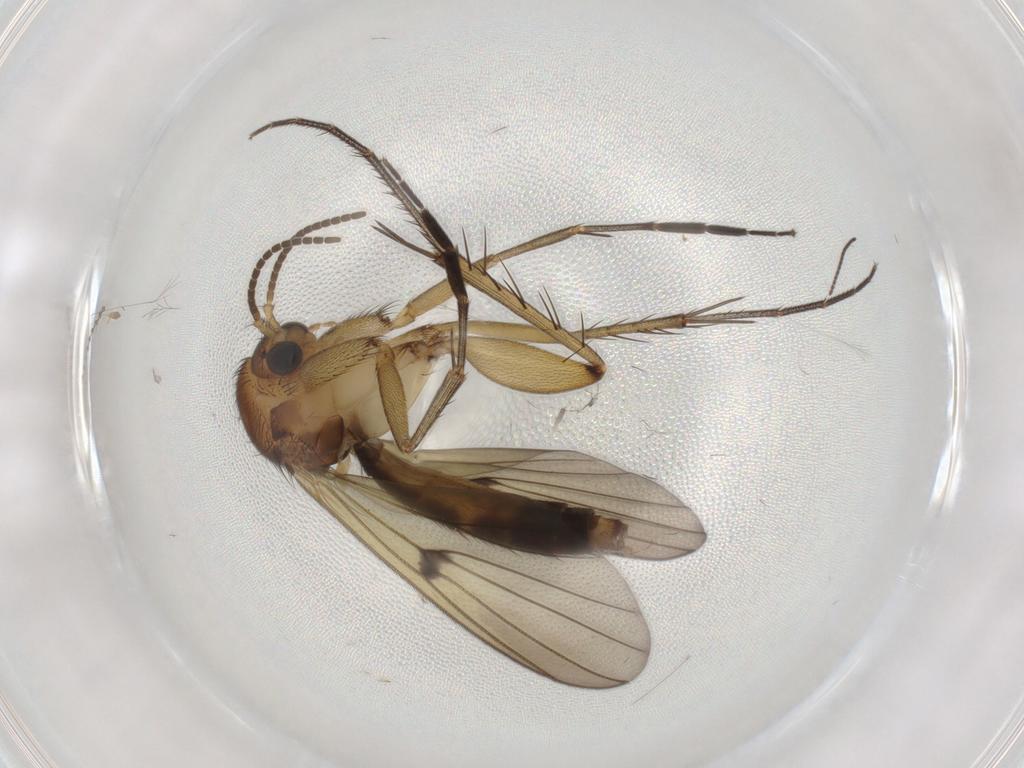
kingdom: Animalia
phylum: Arthropoda
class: Insecta
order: Diptera
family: Sciaridae
